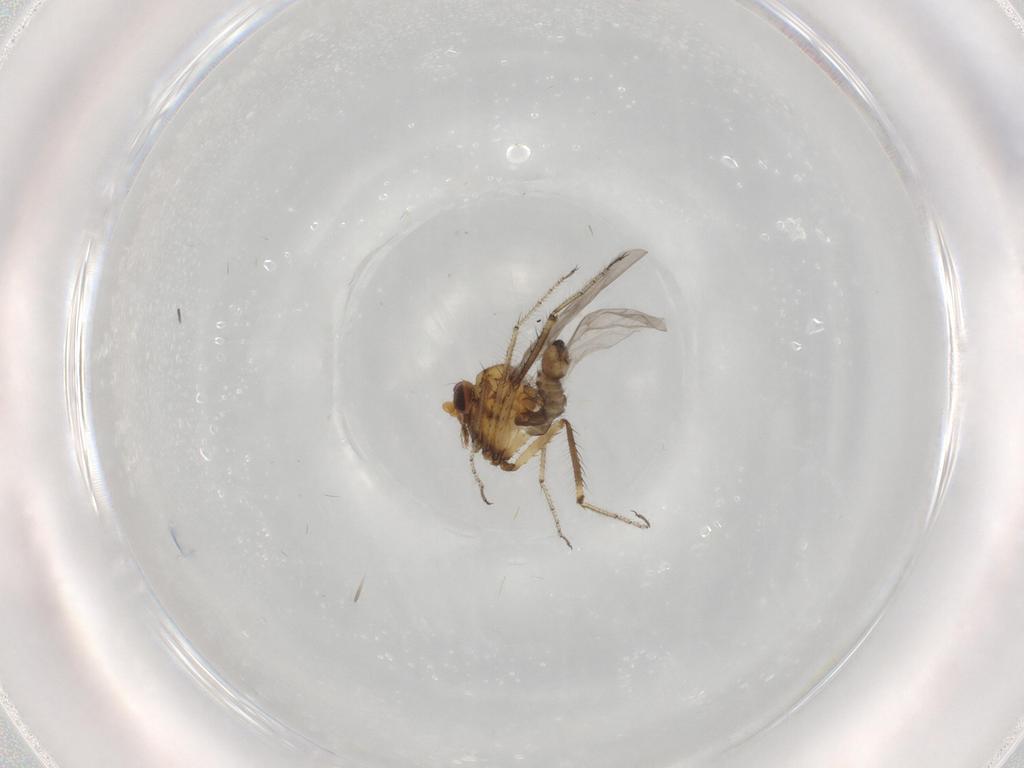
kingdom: Animalia
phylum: Arthropoda
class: Insecta
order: Diptera
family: Ceratopogonidae
